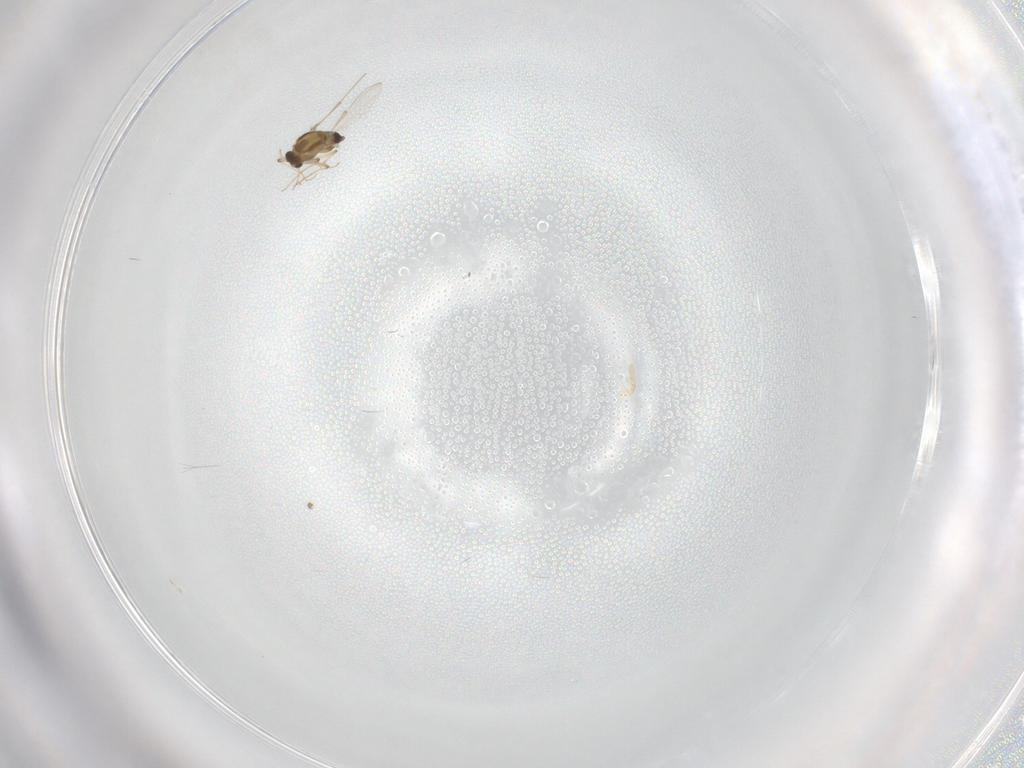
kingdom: Animalia
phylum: Arthropoda
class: Insecta
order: Diptera
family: Chironomidae
